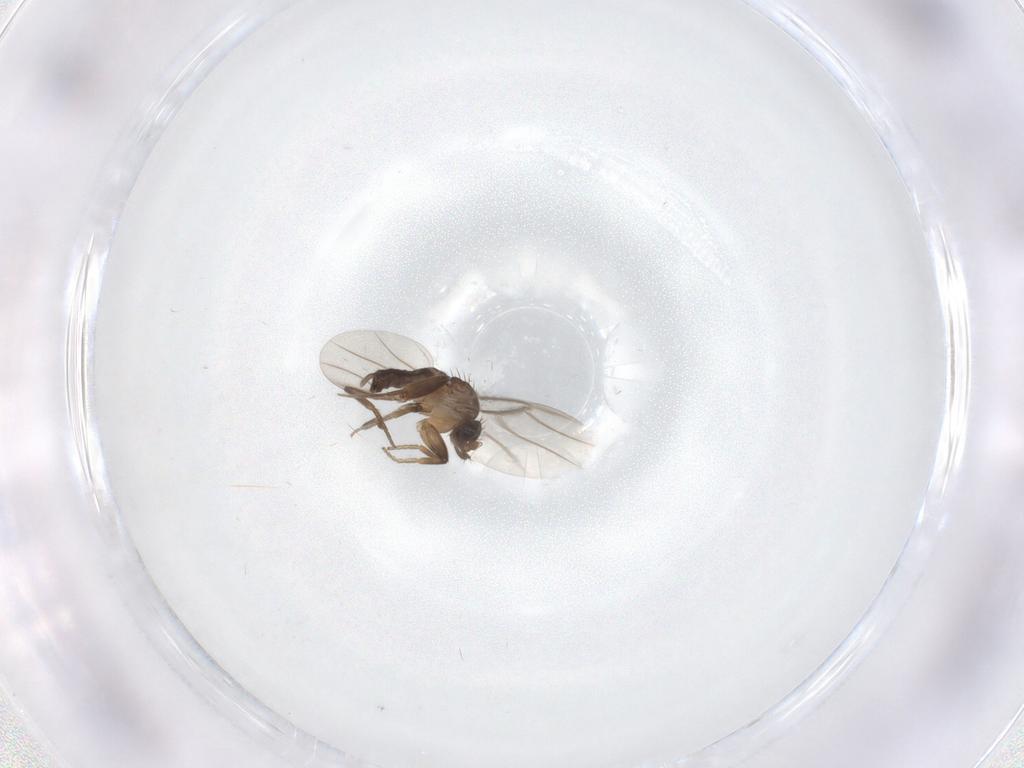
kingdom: Animalia
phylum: Arthropoda
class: Insecta
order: Diptera
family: Phoridae
